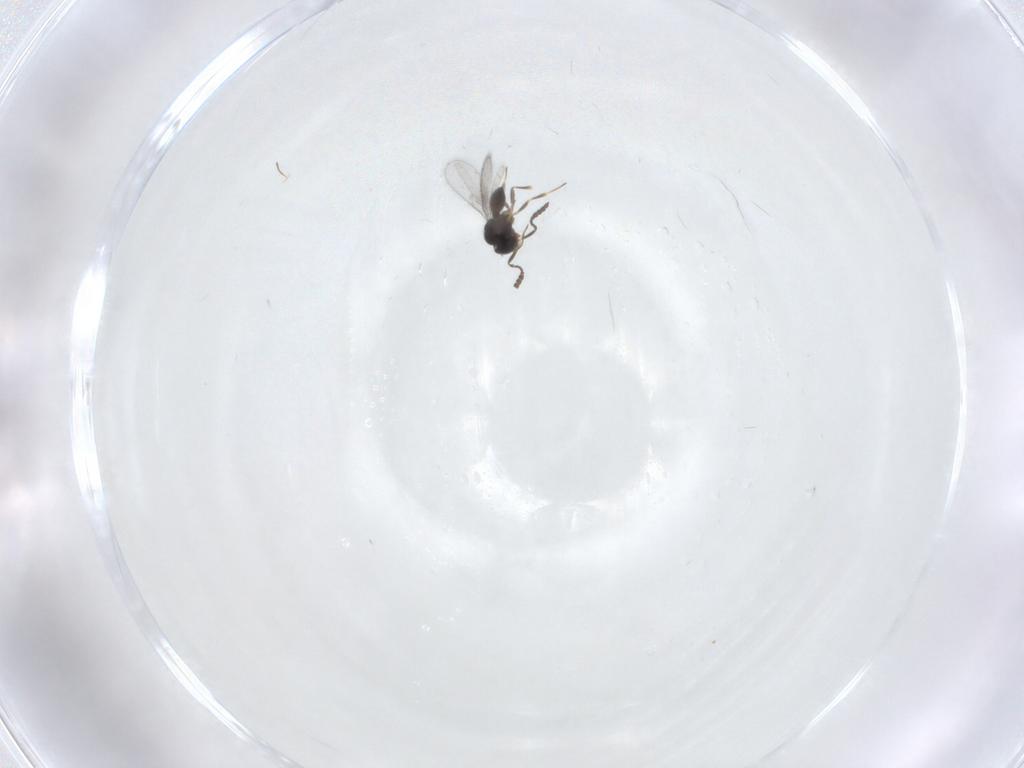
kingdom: Animalia
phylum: Arthropoda
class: Insecta
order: Hymenoptera
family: Scelionidae
